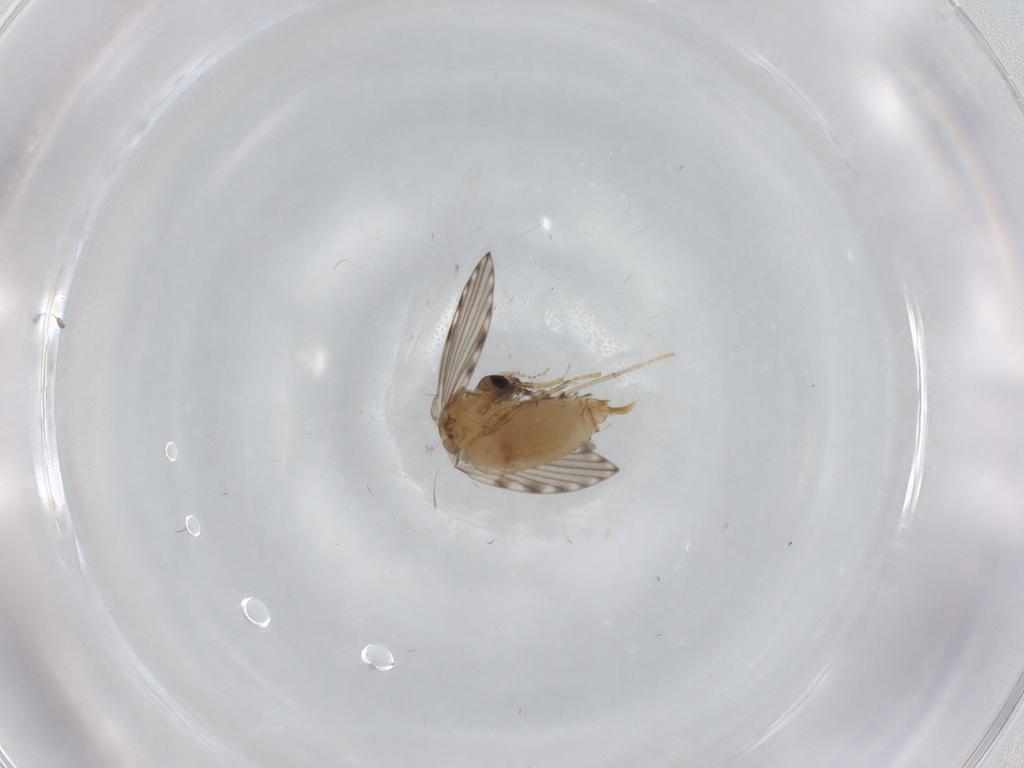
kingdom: Animalia
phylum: Arthropoda
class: Insecta
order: Diptera
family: Psychodidae
